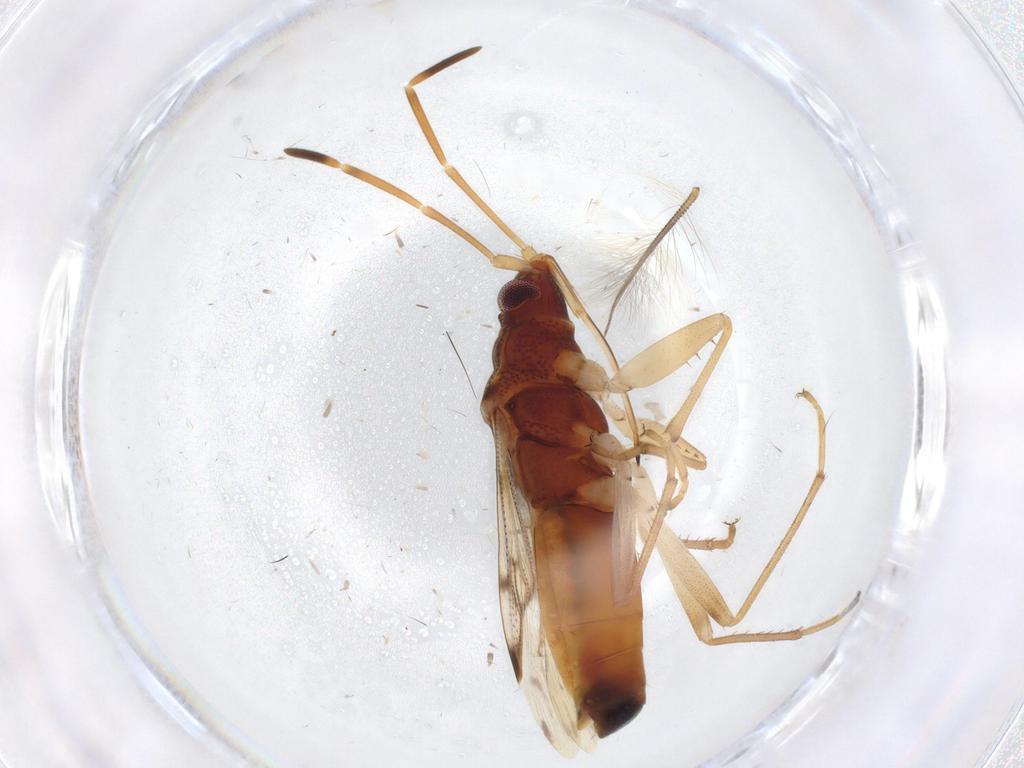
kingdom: Animalia
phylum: Arthropoda
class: Insecta
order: Hemiptera
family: Rhyparochromidae
